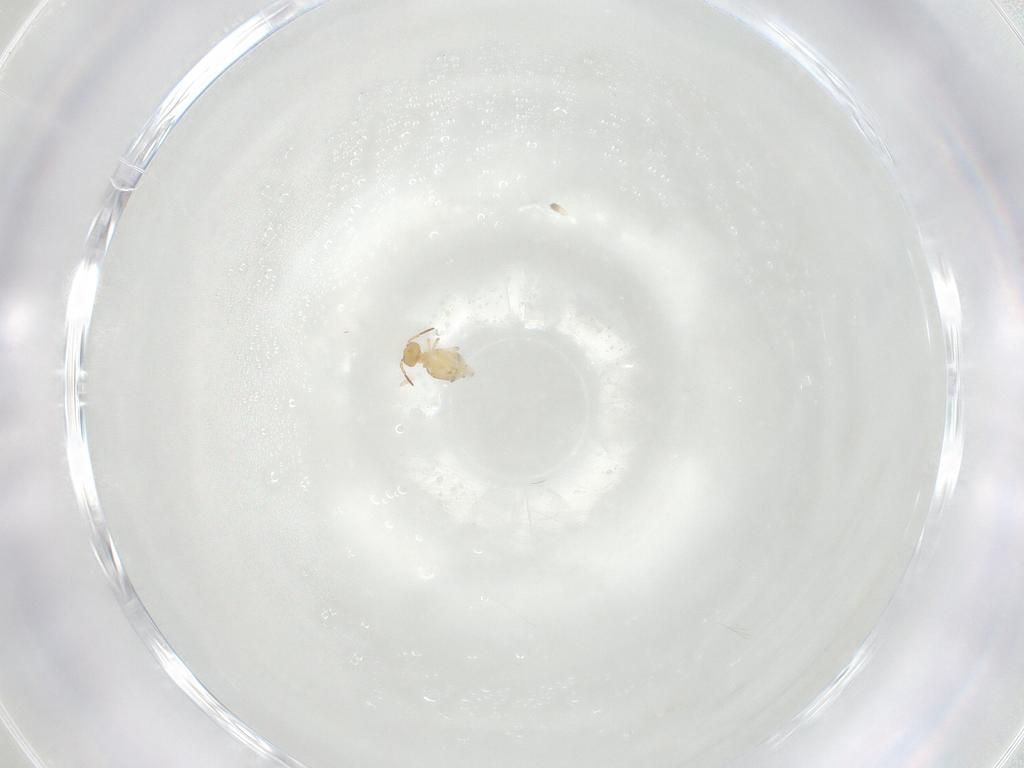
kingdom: Animalia
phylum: Arthropoda
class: Collembola
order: Symphypleona
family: Bourletiellidae
